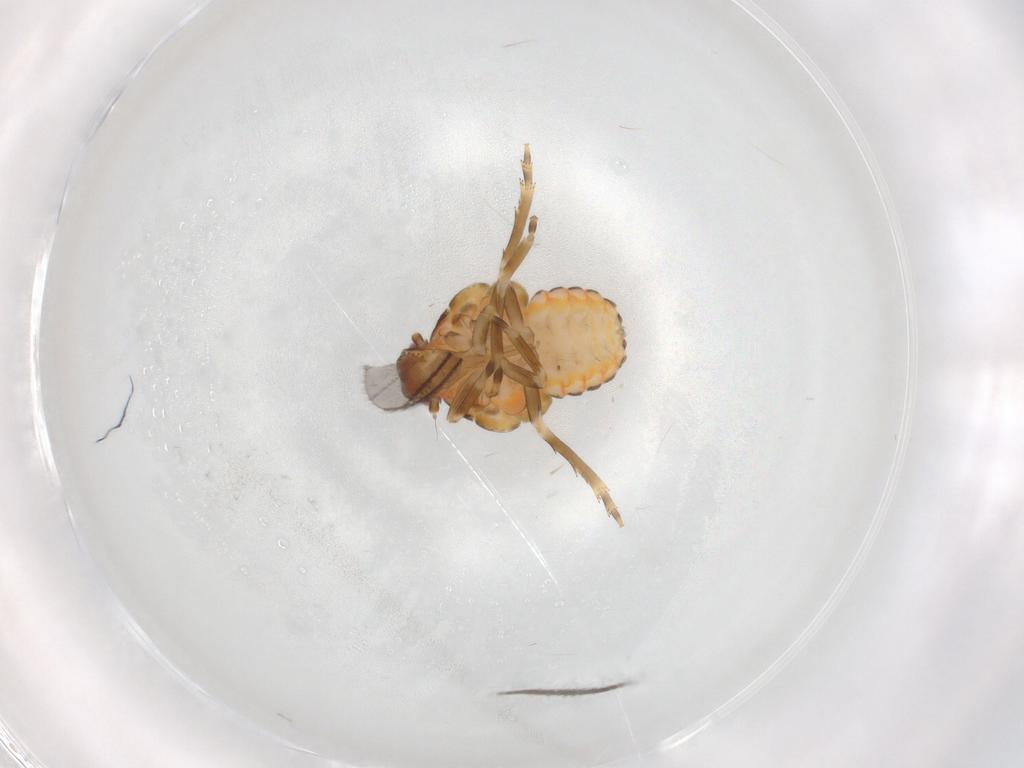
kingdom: Animalia
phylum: Arthropoda
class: Insecta
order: Hemiptera
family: Flatidae
